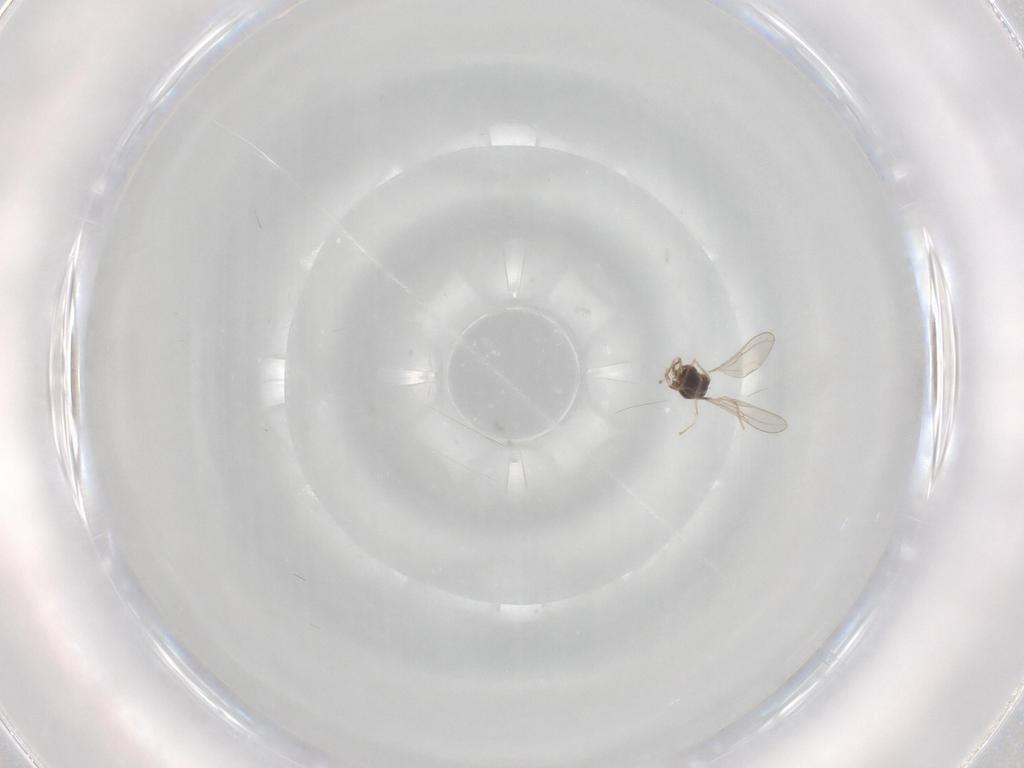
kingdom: Animalia
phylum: Arthropoda
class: Insecta
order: Diptera
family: Cecidomyiidae
